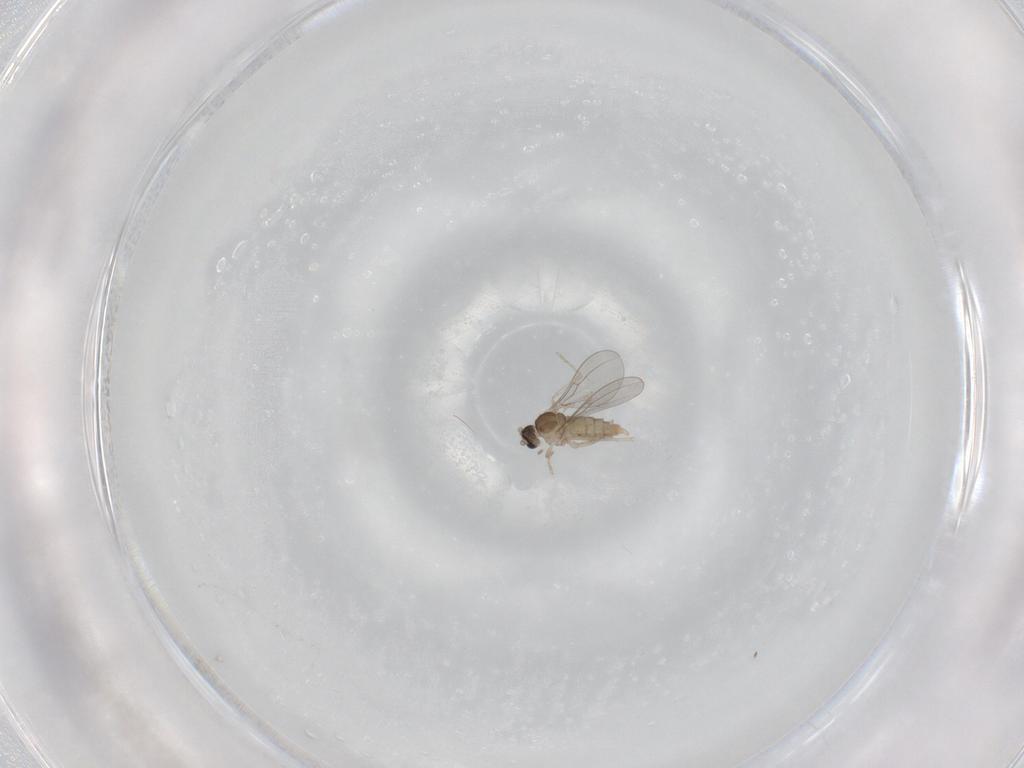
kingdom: Animalia
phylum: Arthropoda
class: Insecta
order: Diptera
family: Cecidomyiidae
